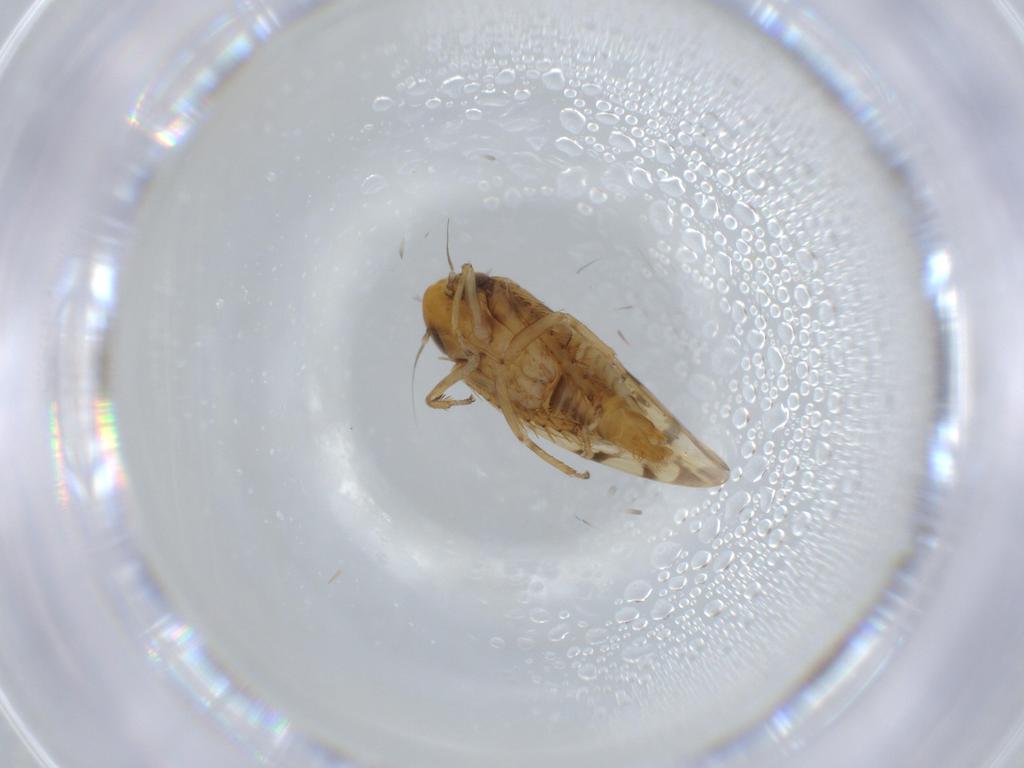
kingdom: Animalia
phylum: Arthropoda
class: Insecta
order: Hemiptera
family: Cicadellidae
